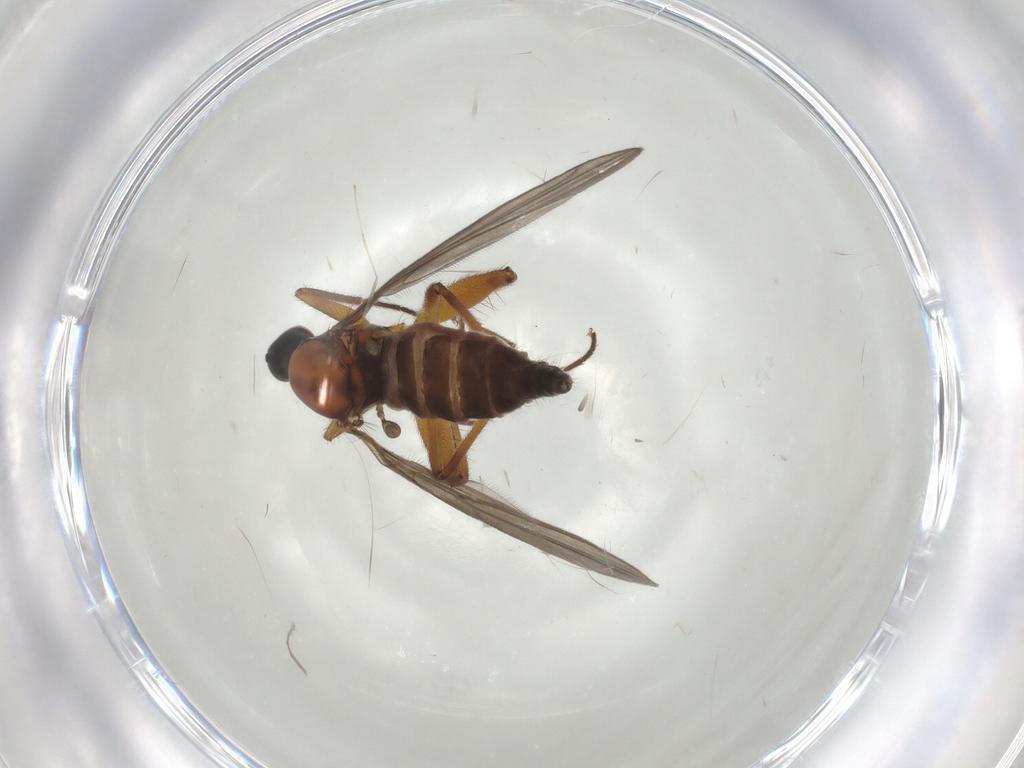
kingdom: Animalia
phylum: Arthropoda
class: Insecta
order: Diptera
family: Hybotidae
